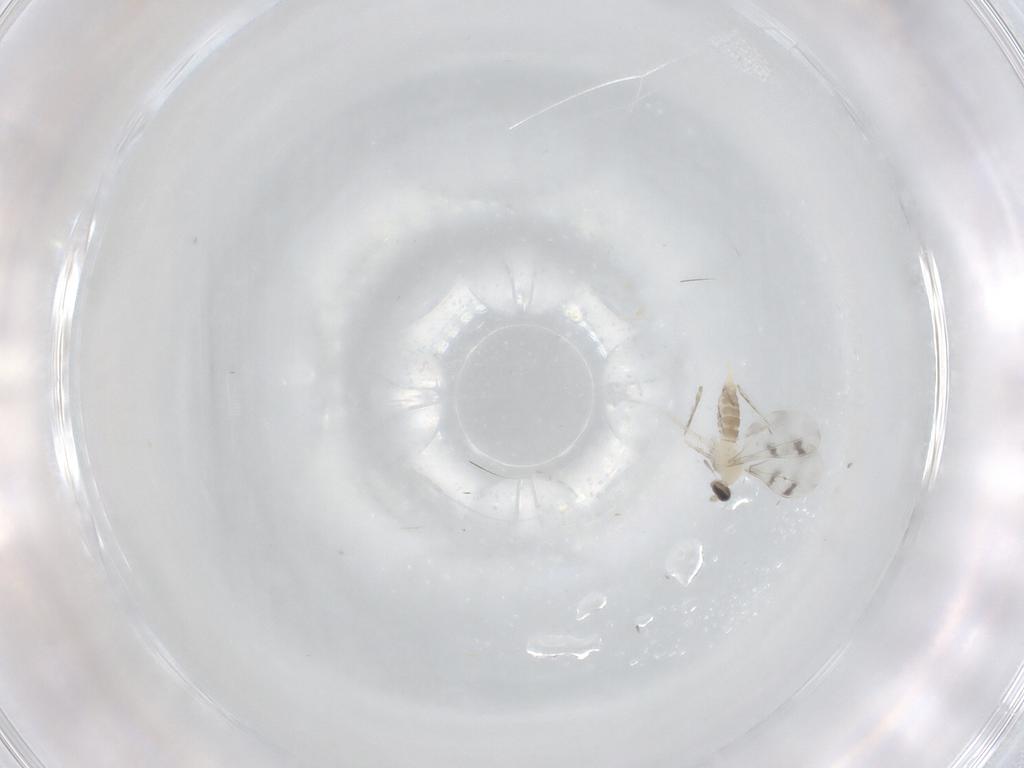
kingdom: Animalia
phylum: Arthropoda
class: Insecta
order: Diptera
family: Cecidomyiidae
